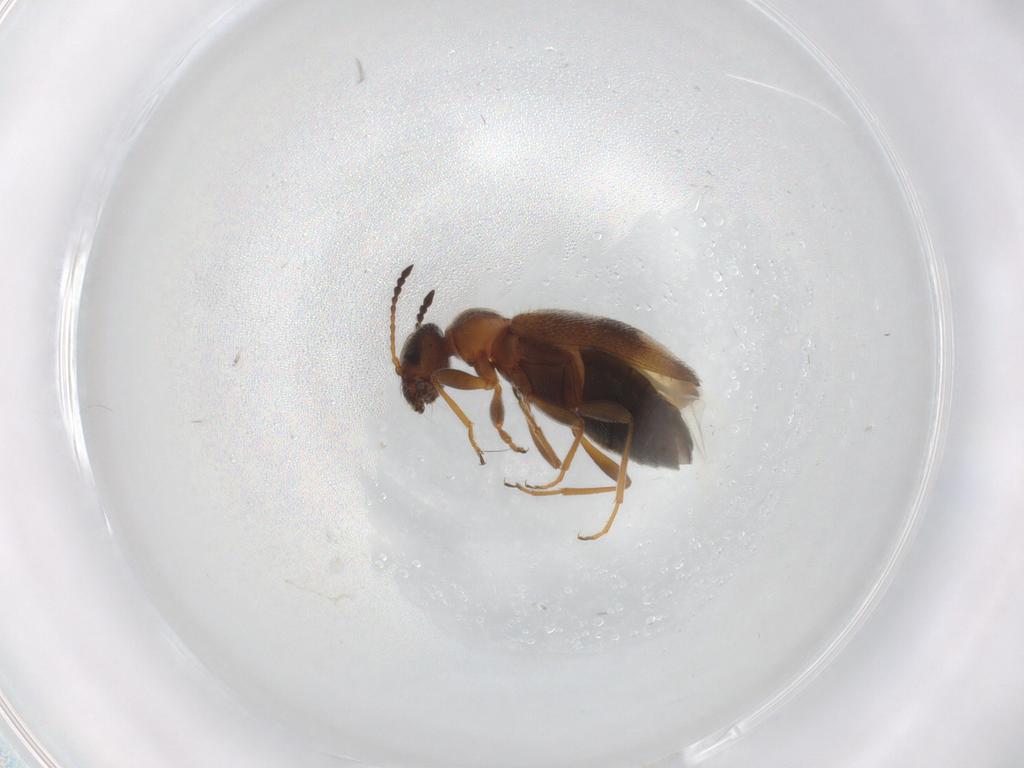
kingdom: Animalia
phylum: Arthropoda
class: Insecta
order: Coleoptera
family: Anthicidae
